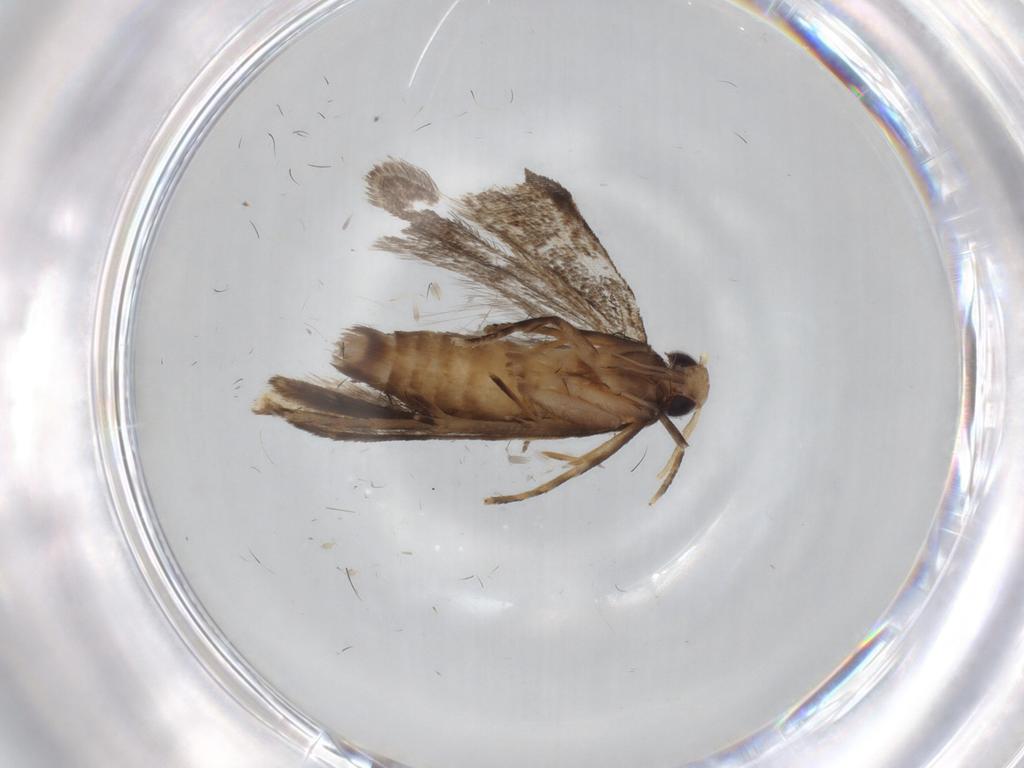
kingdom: Animalia
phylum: Arthropoda
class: Insecta
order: Lepidoptera
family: Gelechiidae
